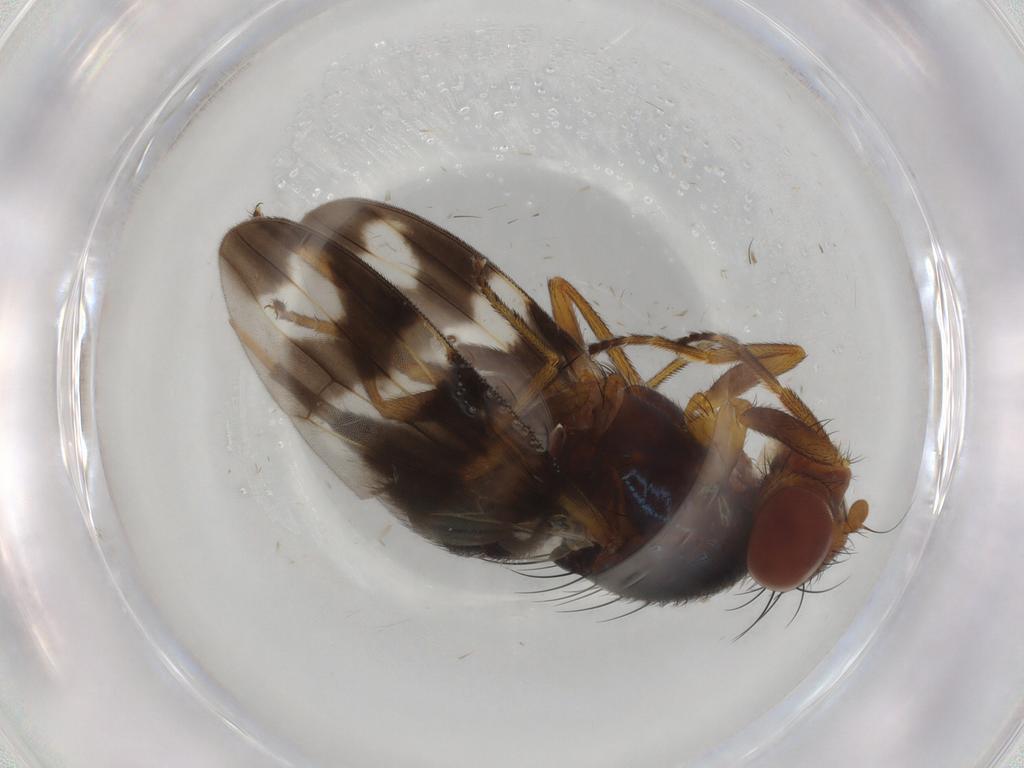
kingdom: Animalia
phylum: Arthropoda
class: Insecta
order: Diptera
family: Ulidiidae
